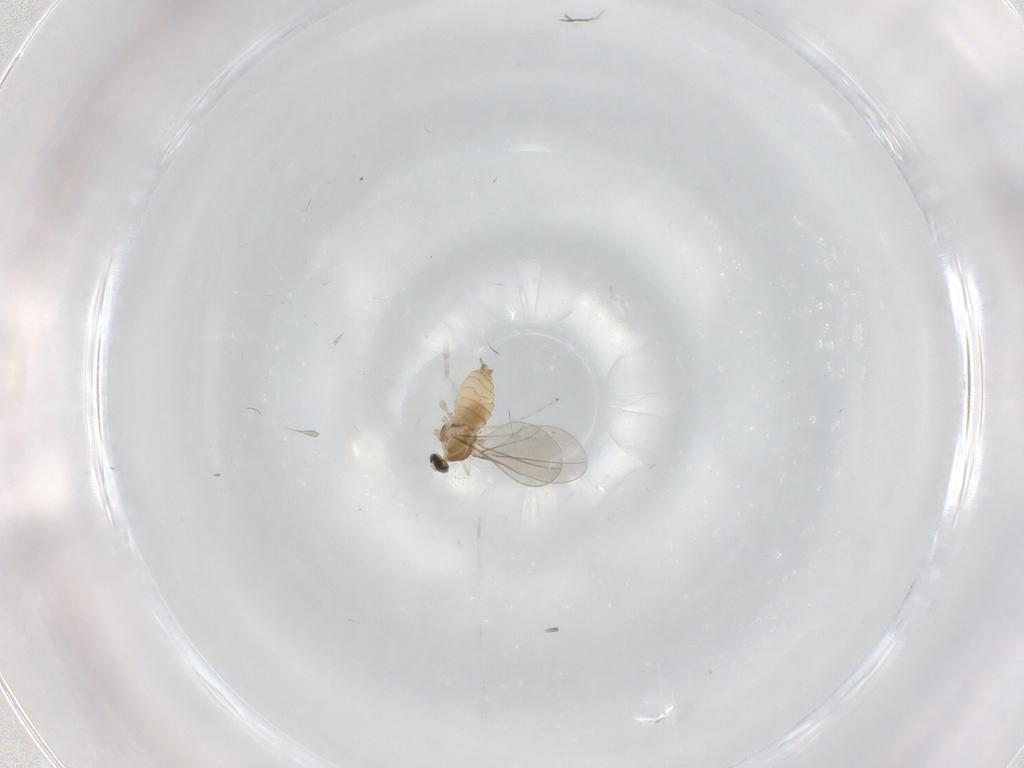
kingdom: Animalia
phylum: Arthropoda
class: Insecta
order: Diptera
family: Cecidomyiidae
